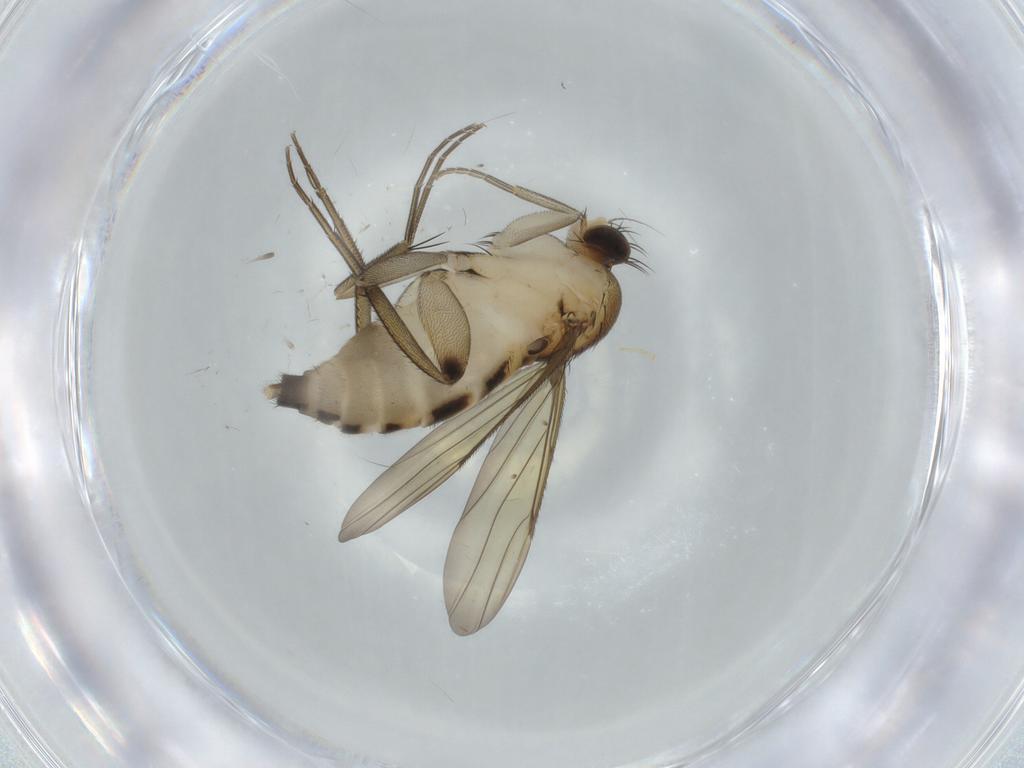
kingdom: Animalia
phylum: Arthropoda
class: Insecta
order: Diptera
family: Phoridae
